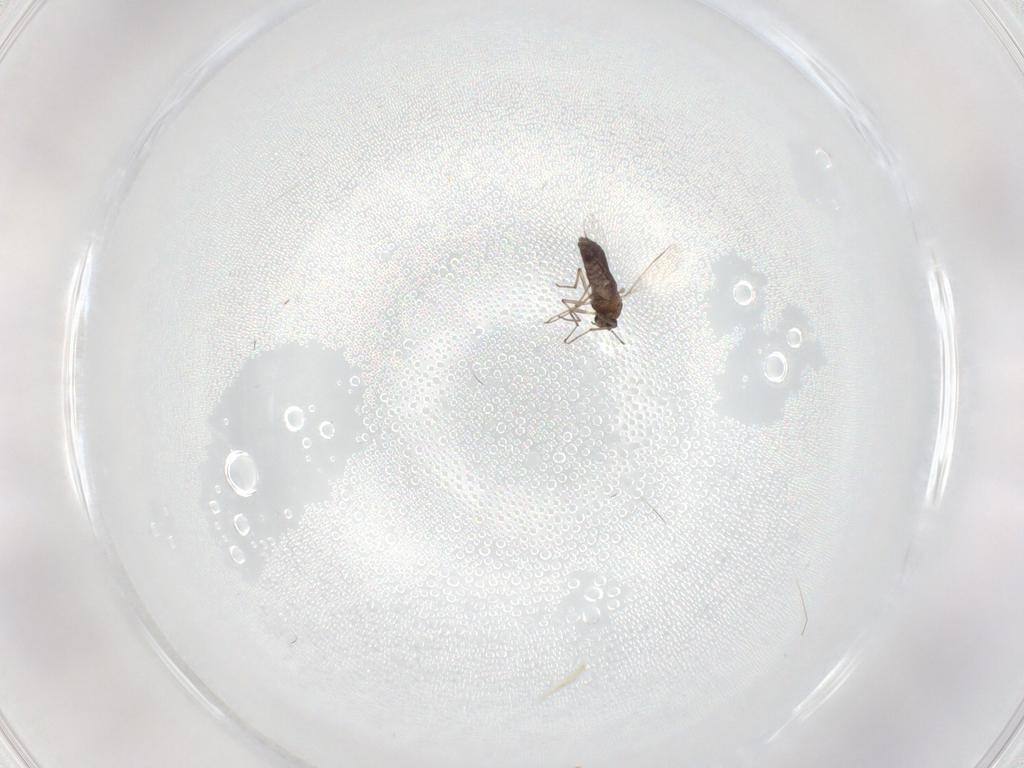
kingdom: Animalia
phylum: Arthropoda
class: Insecta
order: Diptera
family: Chironomidae
